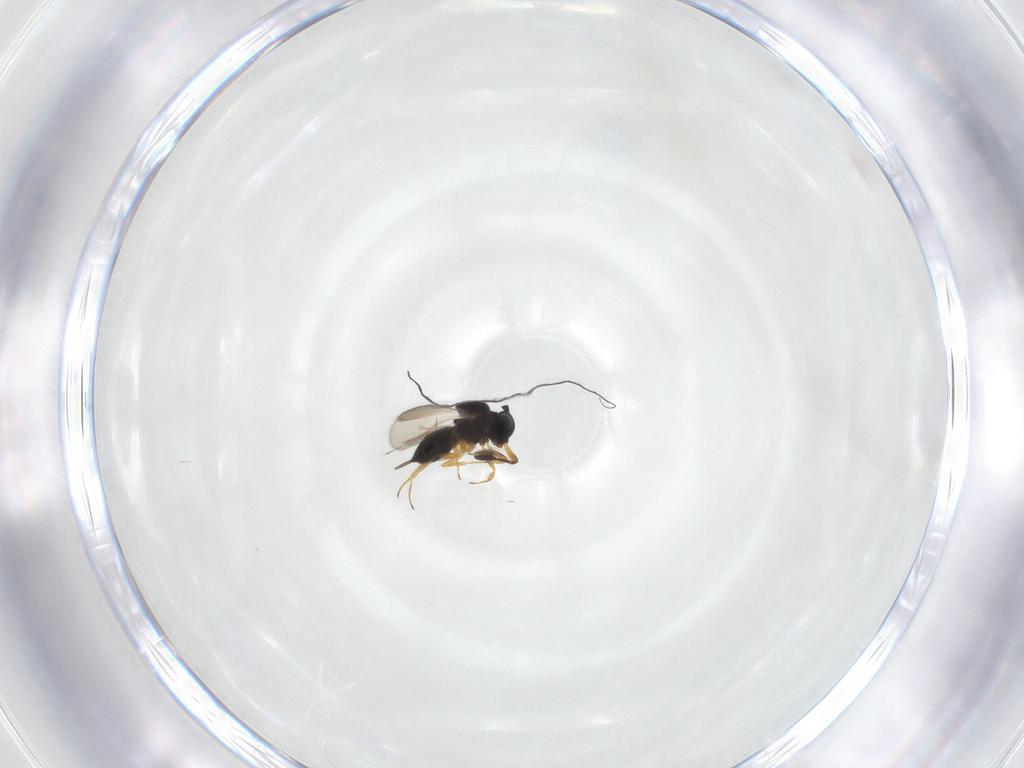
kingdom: Animalia
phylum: Arthropoda
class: Insecta
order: Hymenoptera
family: Scelionidae
